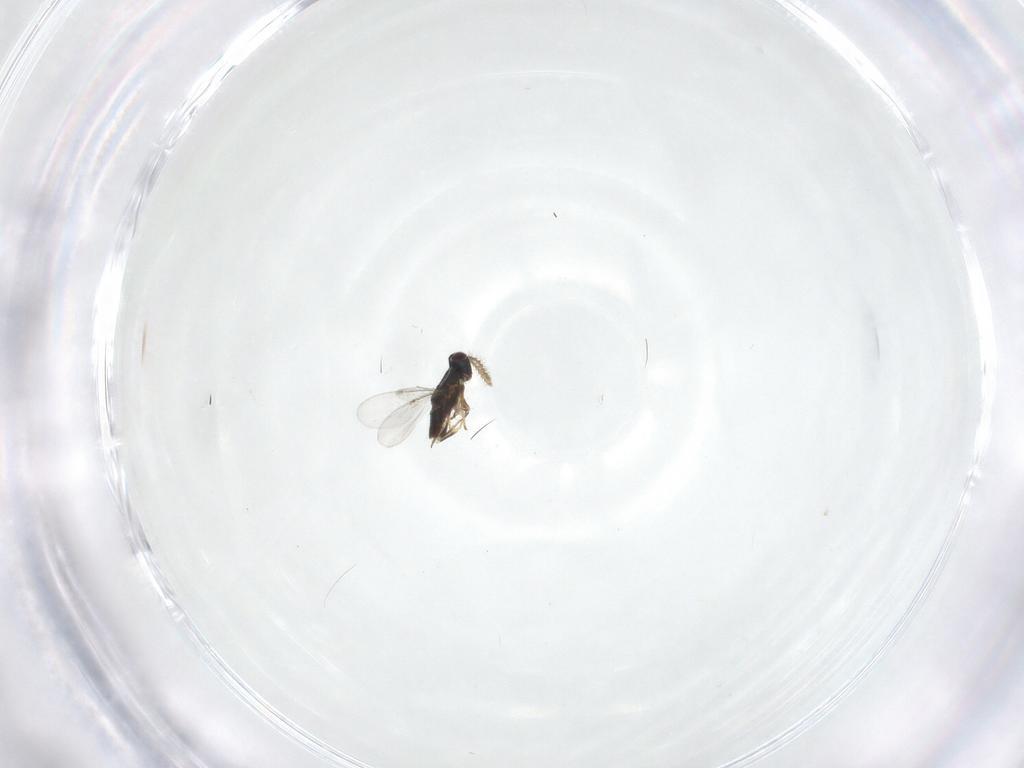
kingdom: Animalia
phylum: Arthropoda
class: Insecta
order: Hymenoptera
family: Encyrtidae
